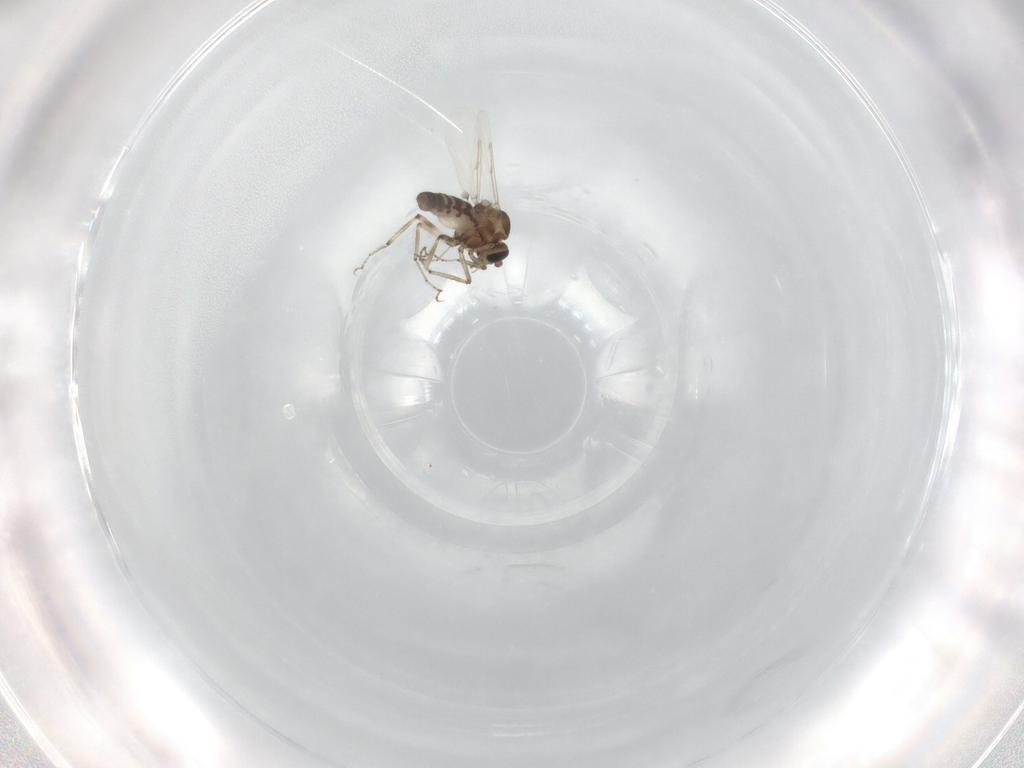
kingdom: Animalia
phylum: Arthropoda
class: Insecta
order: Diptera
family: Ceratopogonidae
